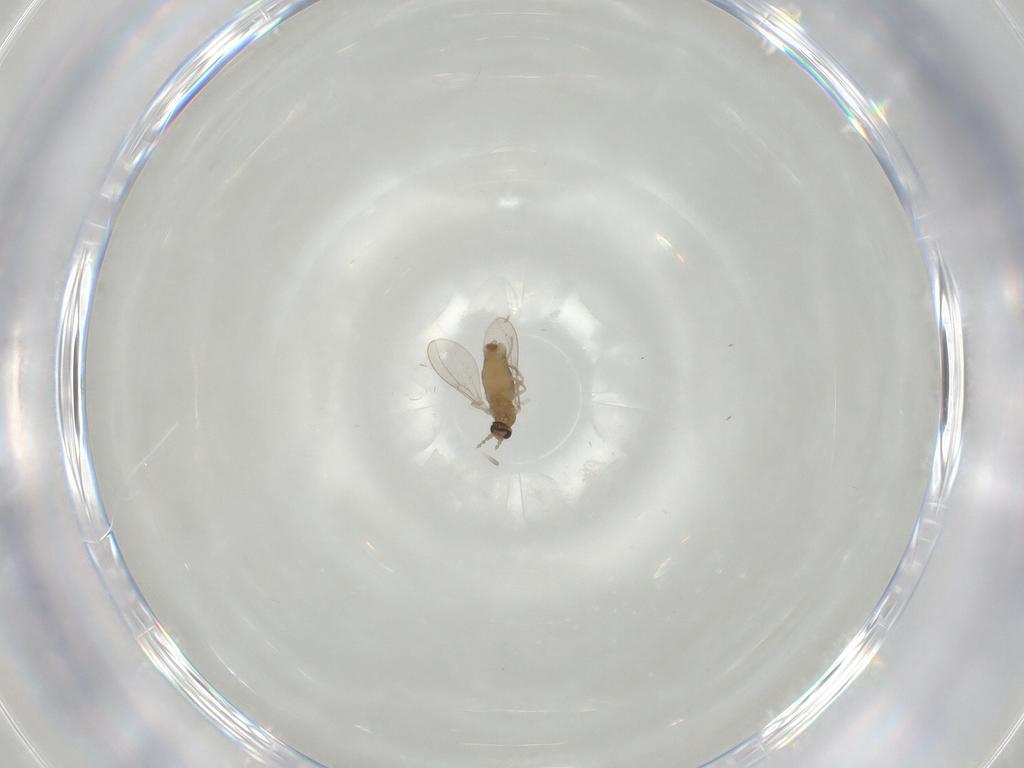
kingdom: Animalia
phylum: Arthropoda
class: Insecta
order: Diptera
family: Cecidomyiidae
